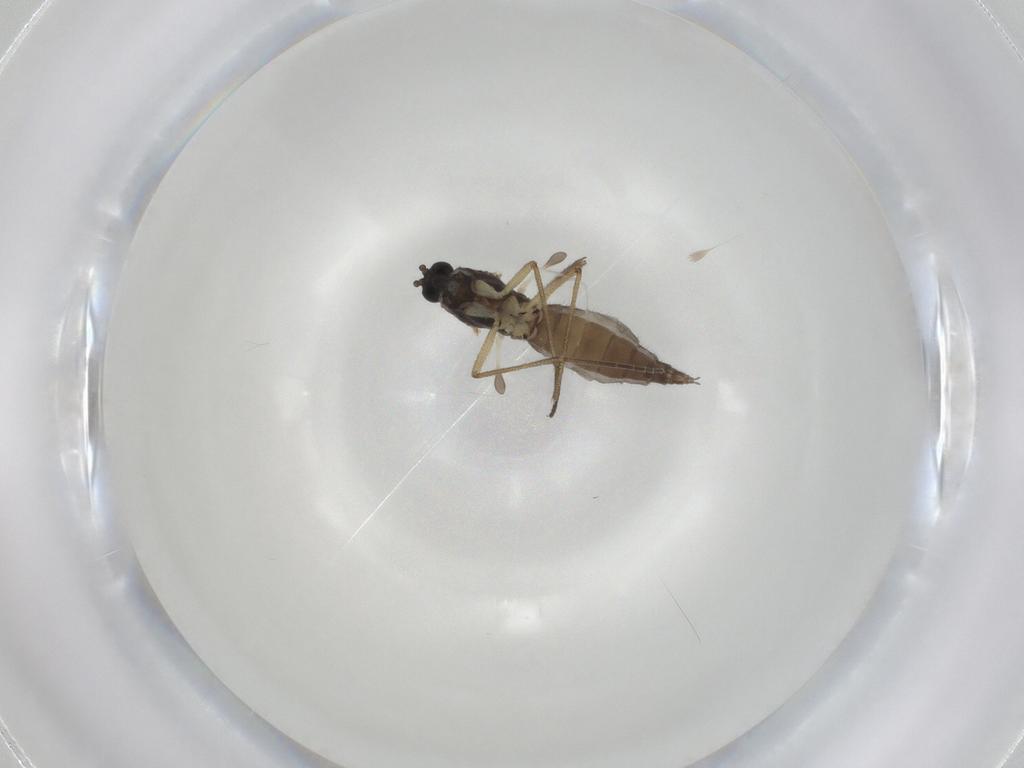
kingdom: Animalia
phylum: Arthropoda
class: Insecta
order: Diptera
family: Sciaridae
